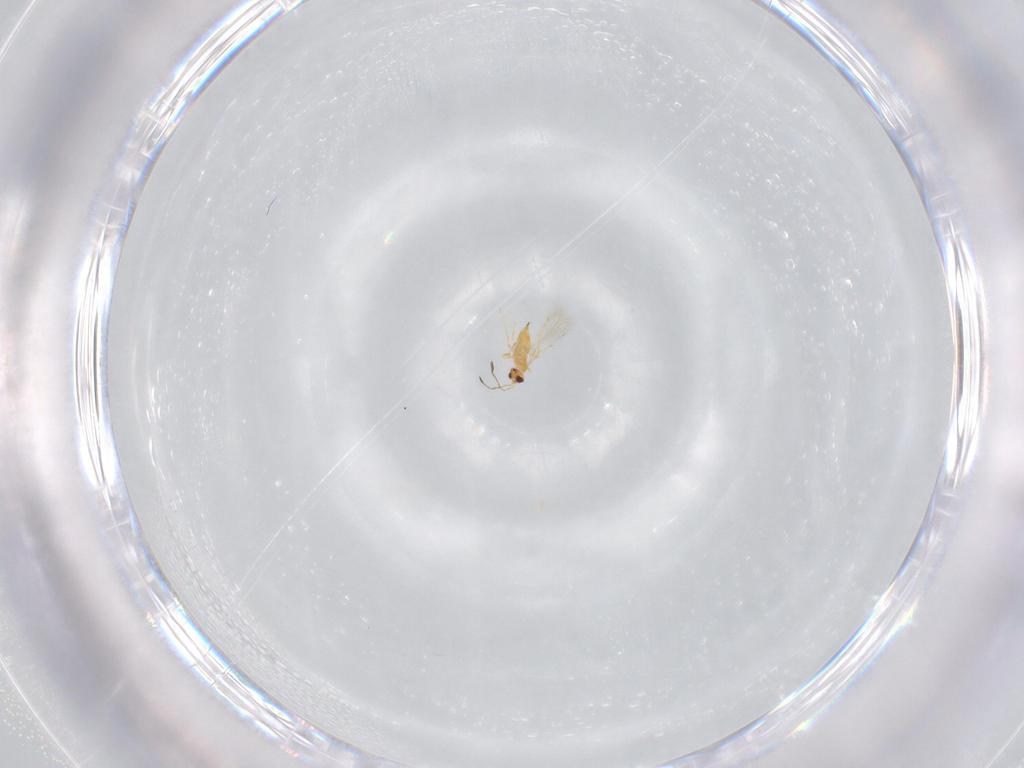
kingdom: Animalia
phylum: Arthropoda
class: Insecta
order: Hymenoptera
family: Mymaridae
